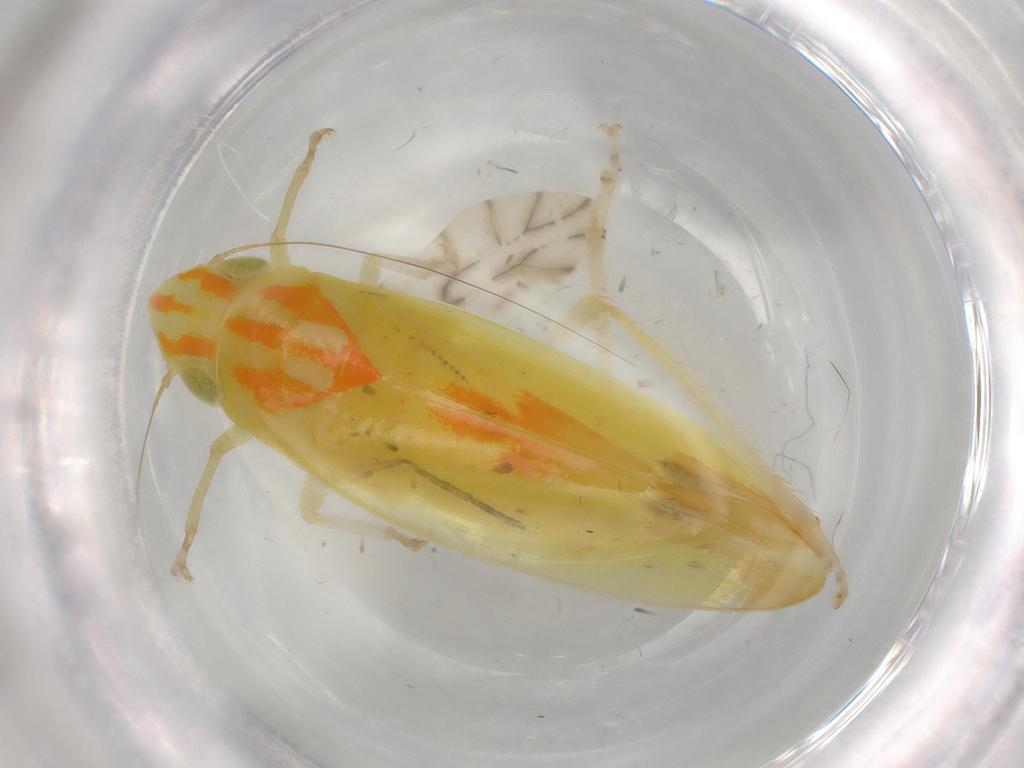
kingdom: Animalia
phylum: Arthropoda
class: Insecta
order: Hemiptera
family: Cicadellidae
